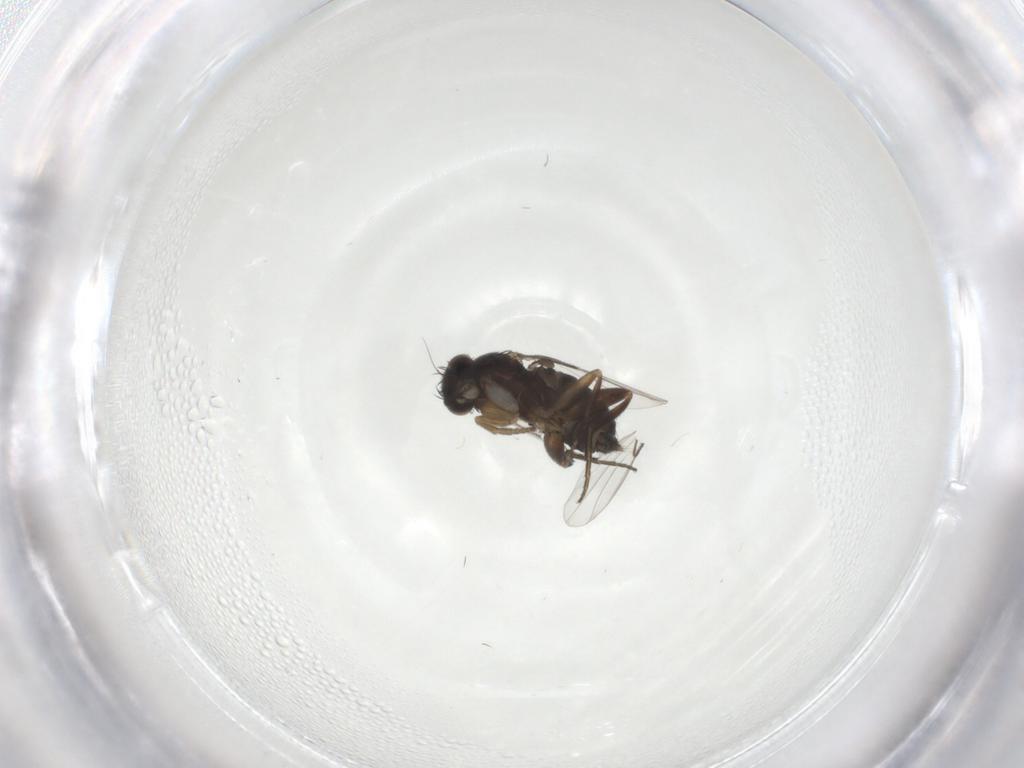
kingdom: Animalia
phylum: Arthropoda
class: Insecta
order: Diptera
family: Phoridae
